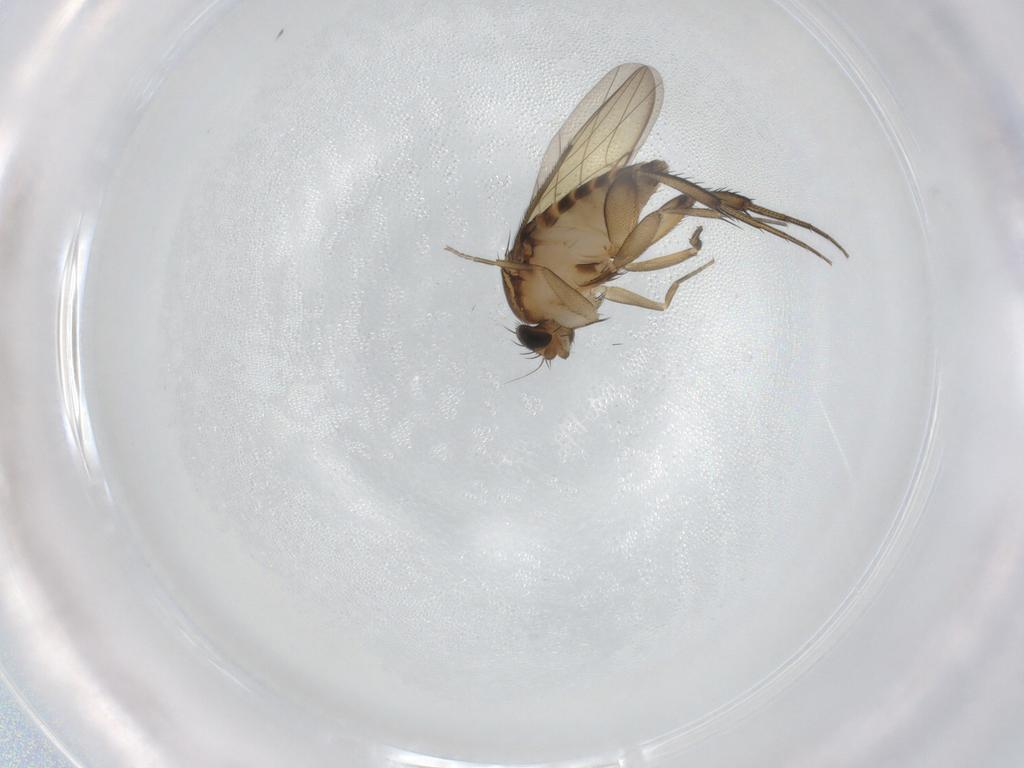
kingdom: Animalia
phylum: Arthropoda
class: Insecta
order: Diptera
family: Phoridae
